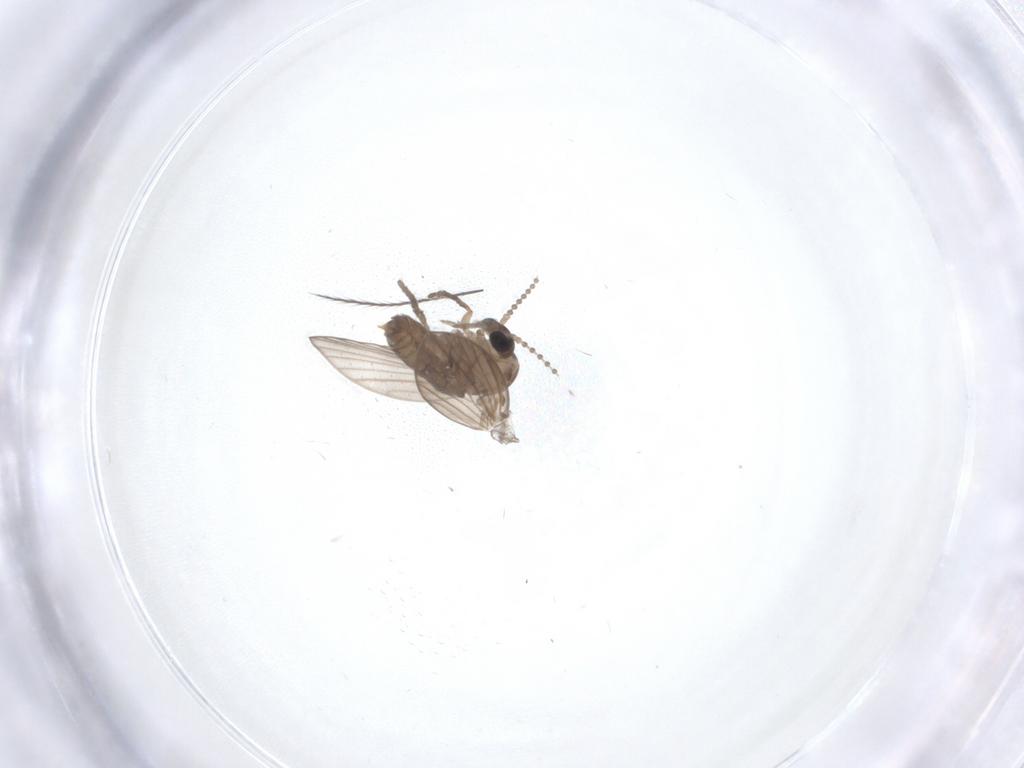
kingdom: Animalia
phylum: Arthropoda
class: Insecta
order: Diptera
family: Psychodidae
